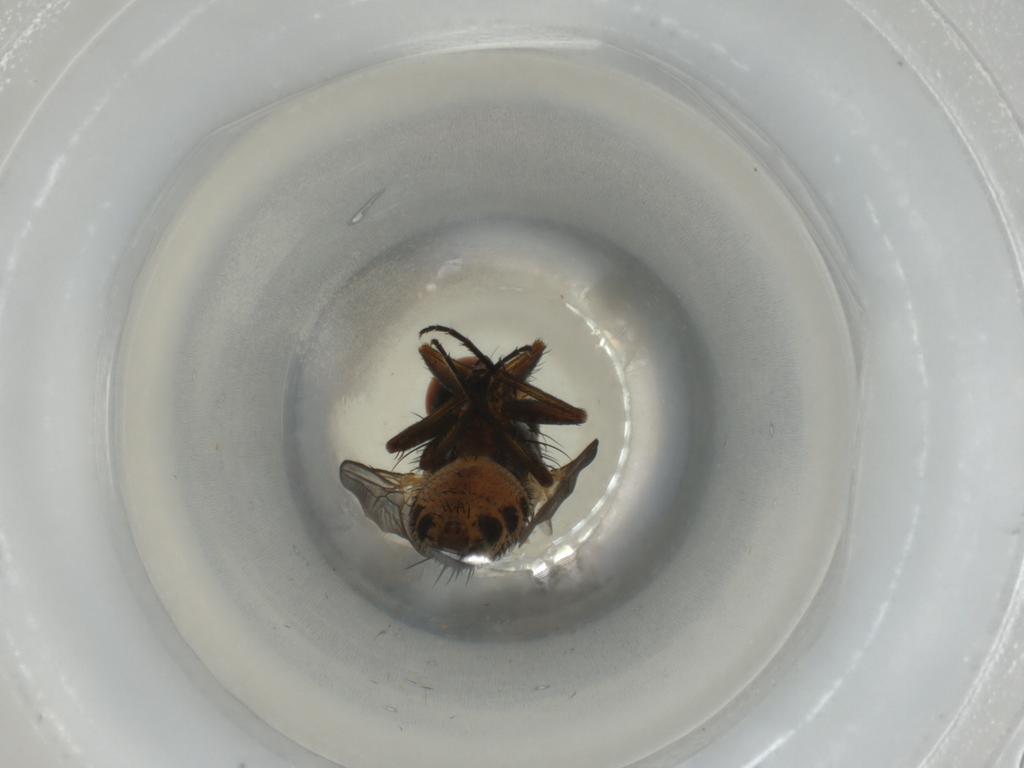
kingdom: Animalia
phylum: Arthropoda
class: Insecta
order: Diptera
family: Sarcophagidae
